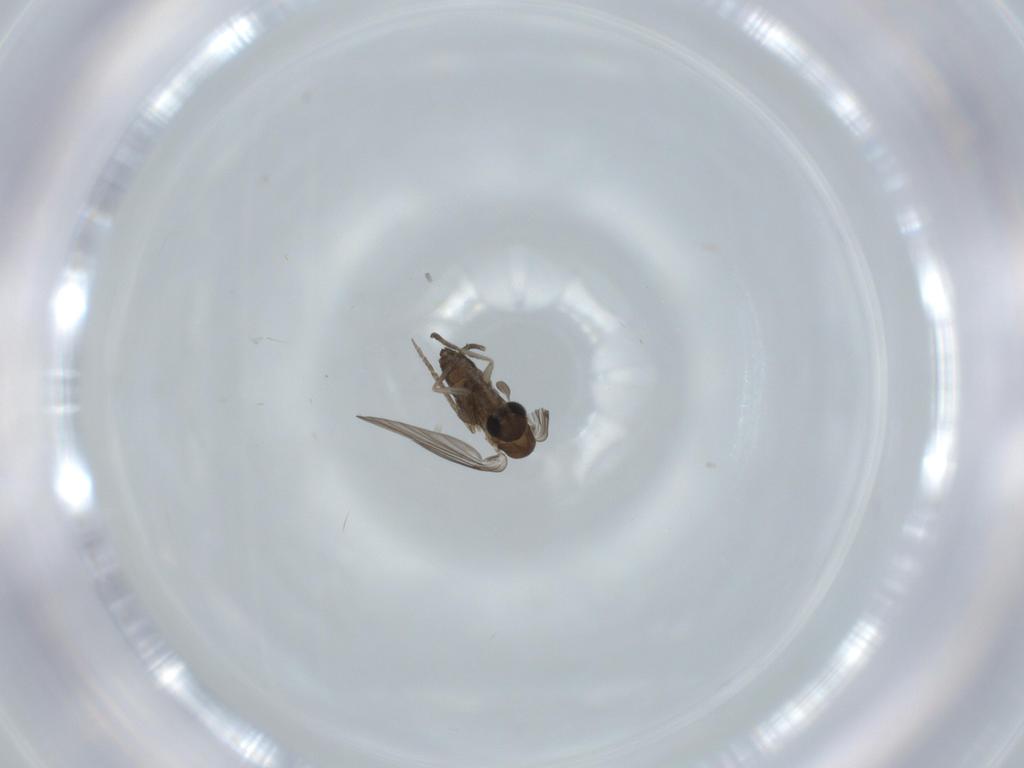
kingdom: Animalia
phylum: Arthropoda
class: Insecta
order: Diptera
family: Psychodidae
